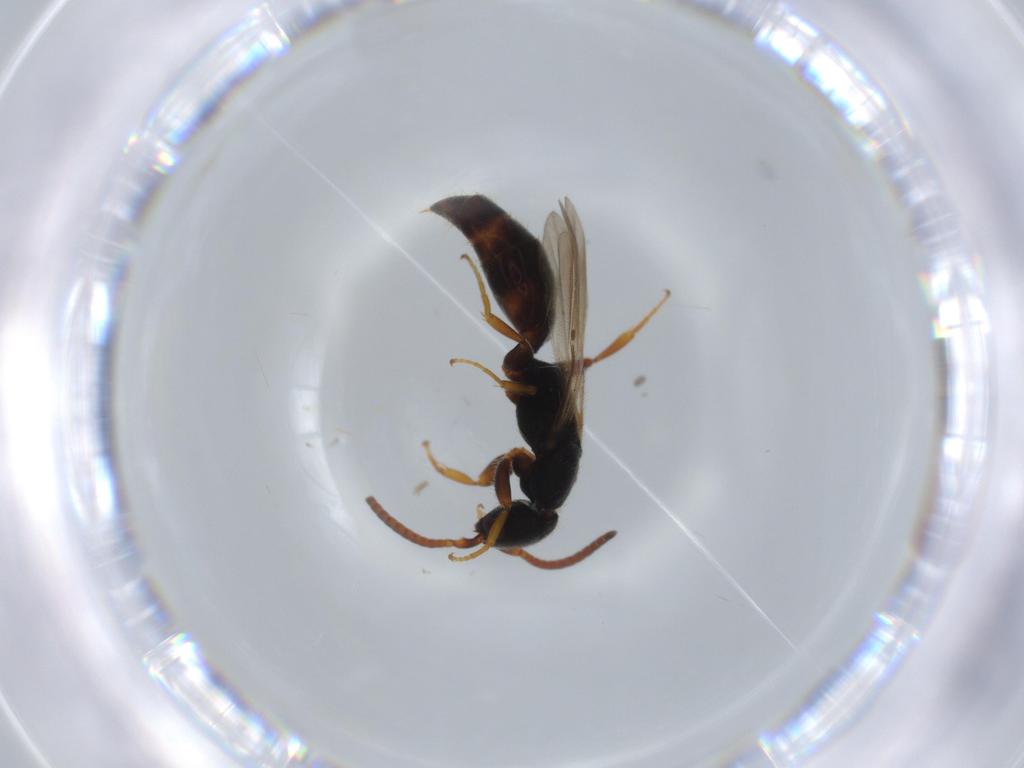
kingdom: Animalia
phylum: Arthropoda
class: Insecta
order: Hymenoptera
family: Bethylidae
